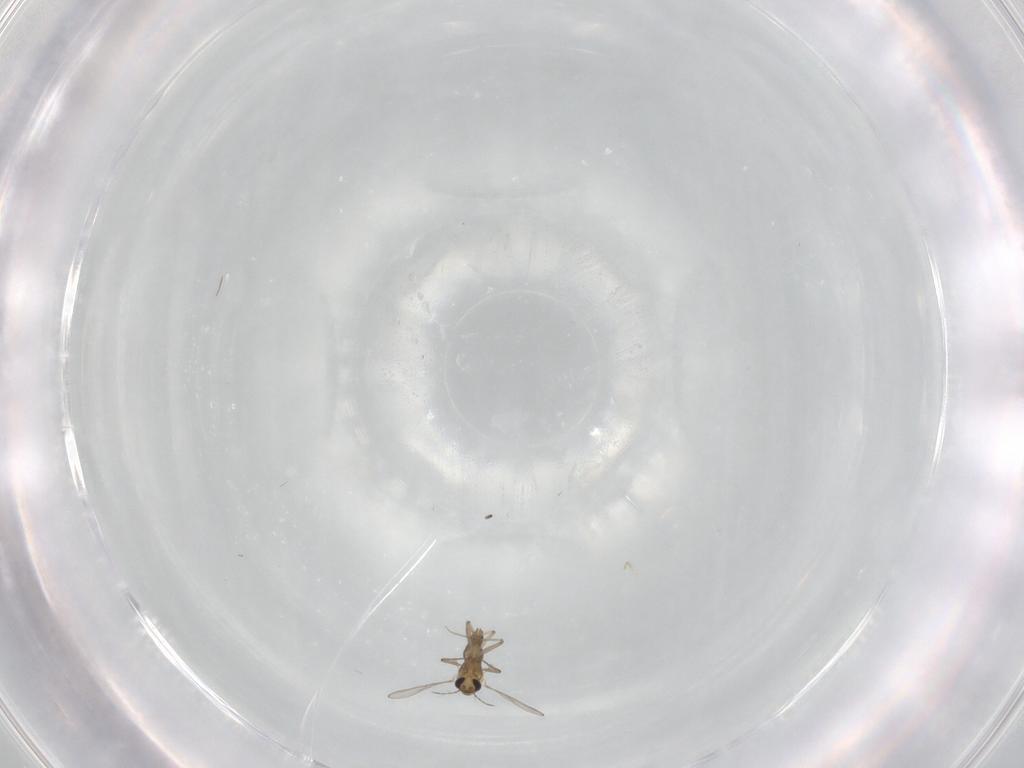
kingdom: Animalia
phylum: Arthropoda
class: Insecta
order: Diptera
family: Chironomidae
